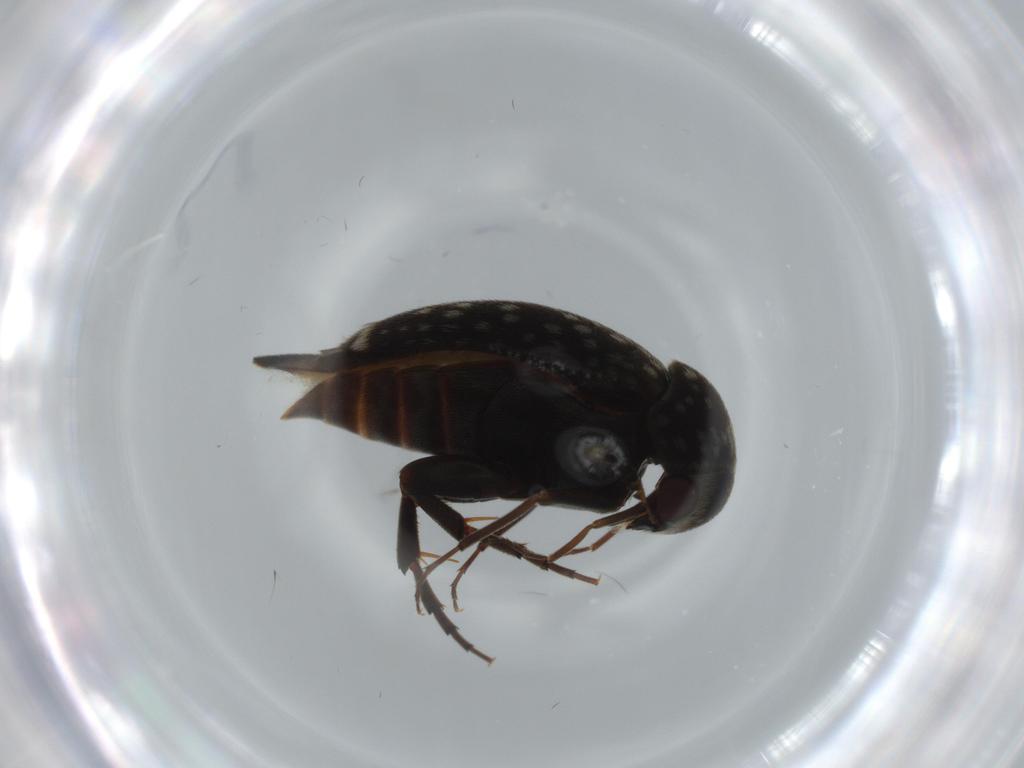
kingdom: Animalia
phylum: Arthropoda
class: Insecta
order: Coleoptera
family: Mordellidae
